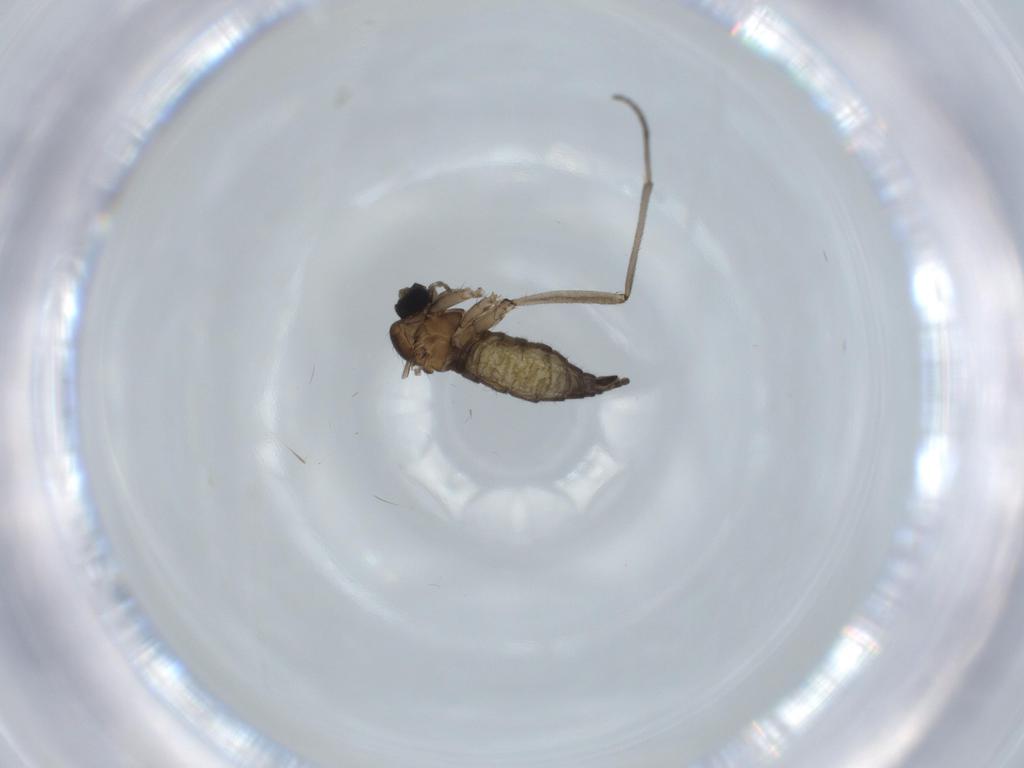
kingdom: Animalia
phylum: Arthropoda
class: Insecta
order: Diptera
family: Sciaridae
